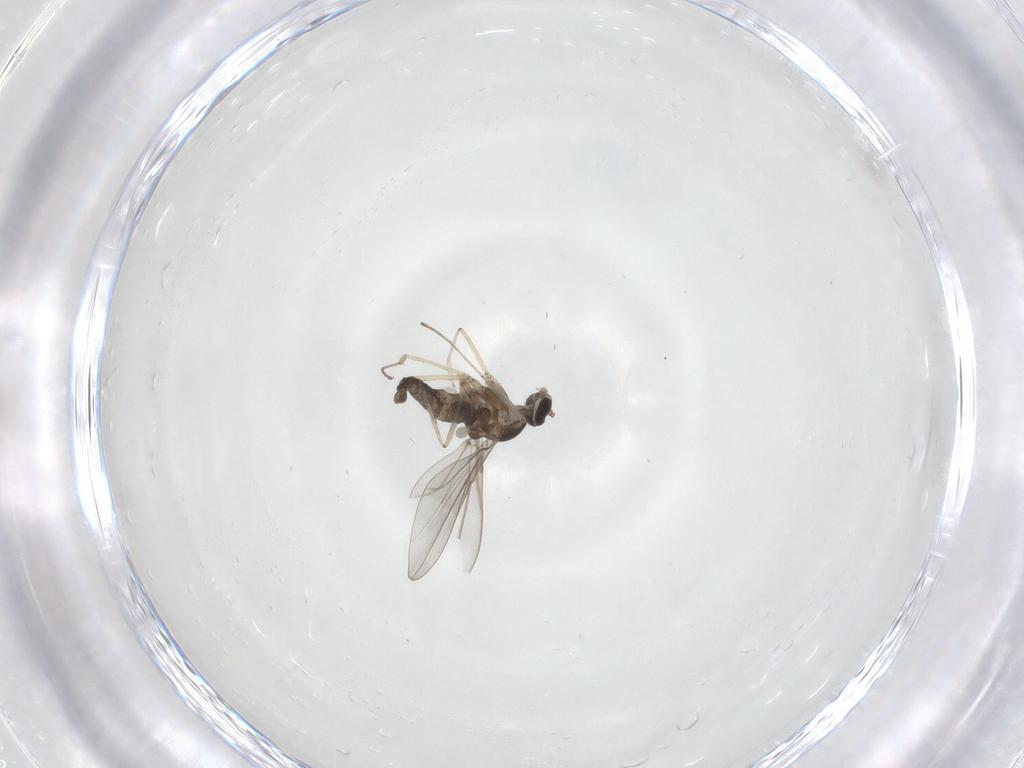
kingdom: Animalia
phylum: Arthropoda
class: Insecta
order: Diptera
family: Cecidomyiidae
